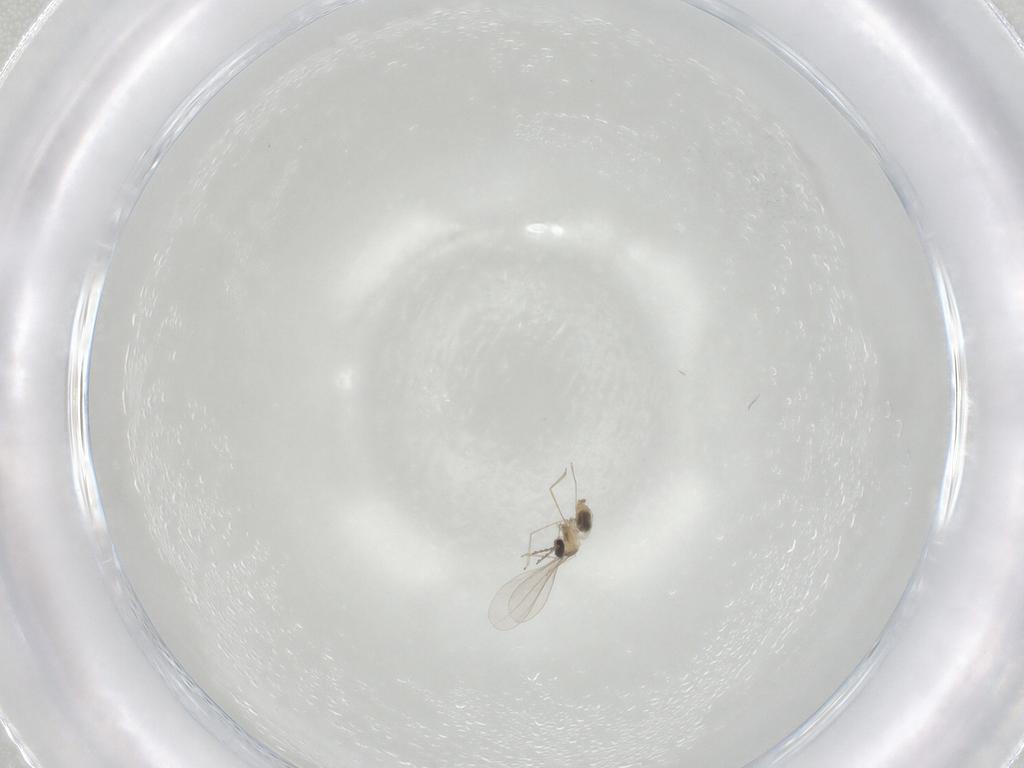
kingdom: Animalia
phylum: Arthropoda
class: Insecta
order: Diptera
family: Cecidomyiidae
